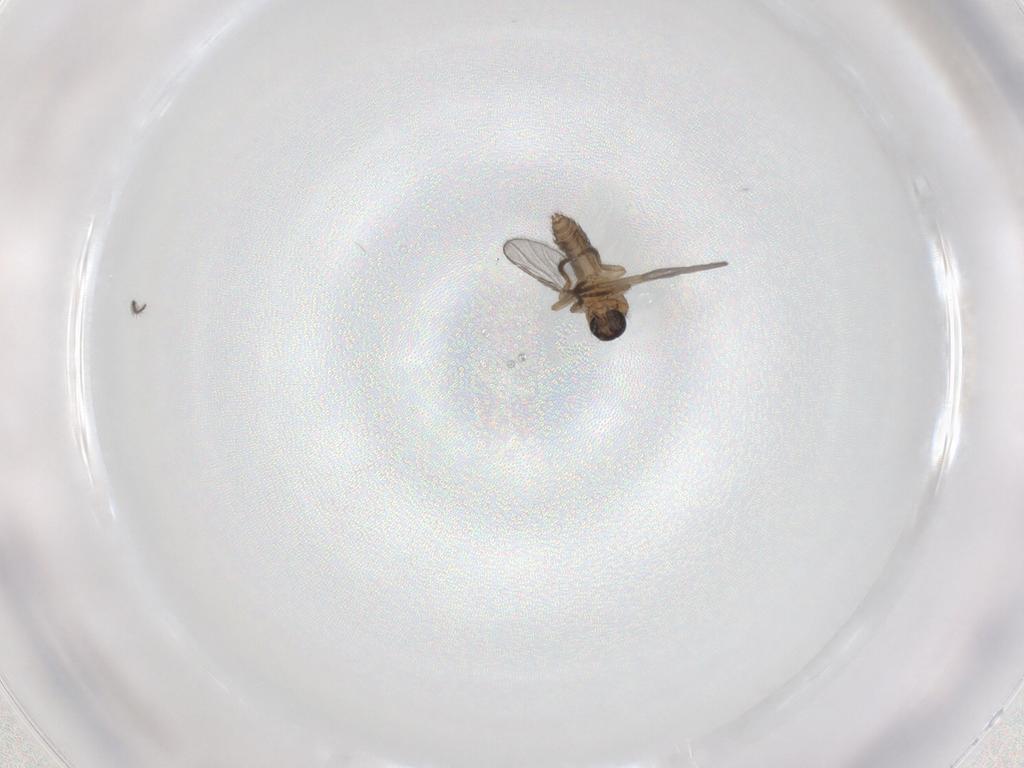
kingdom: Animalia
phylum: Arthropoda
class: Insecta
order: Diptera
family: Ceratopogonidae
